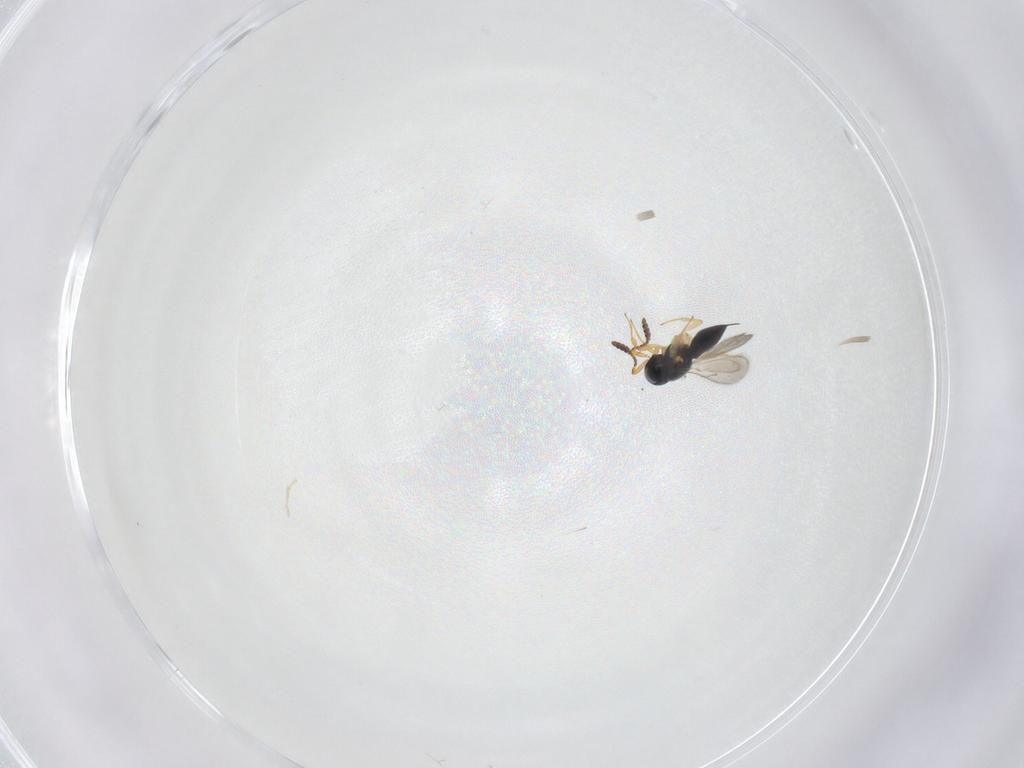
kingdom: Animalia
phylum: Arthropoda
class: Insecta
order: Hymenoptera
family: Scelionidae
